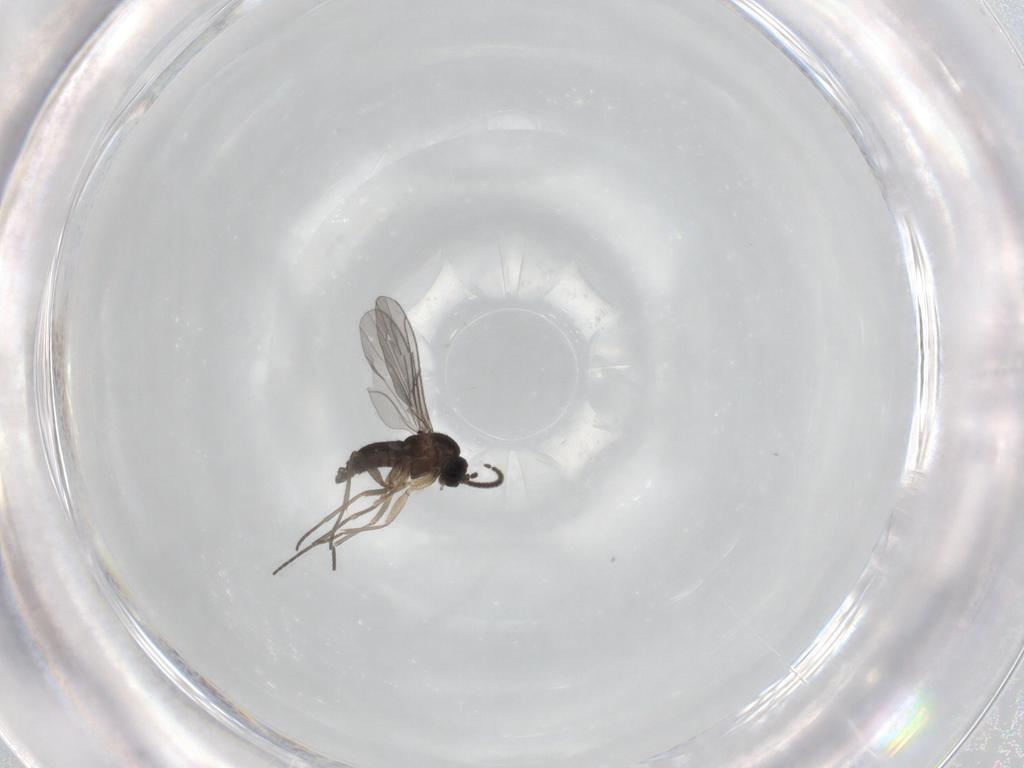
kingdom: Animalia
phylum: Arthropoda
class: Insecta
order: Diptera
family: Sciaridae
